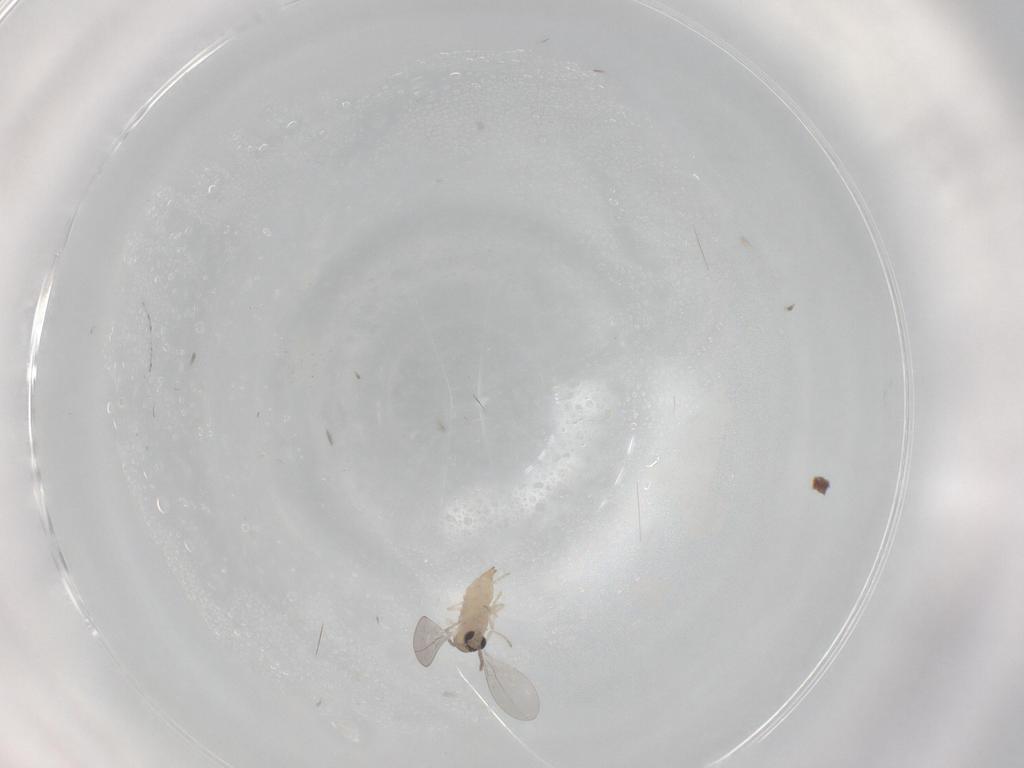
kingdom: Animalia
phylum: Arthropoda
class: Insecta
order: Diptera
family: Cecidomyiidae
